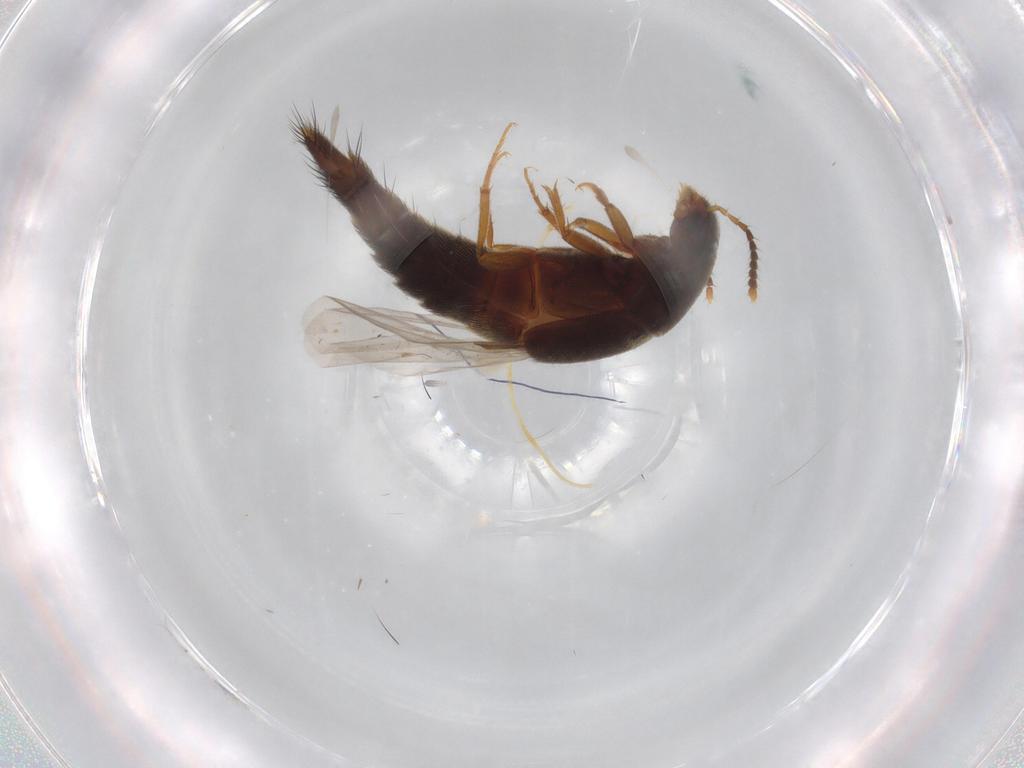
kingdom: Animalia
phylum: Arthropoda
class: Insecta
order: Coleoptera
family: Staphylinidae
